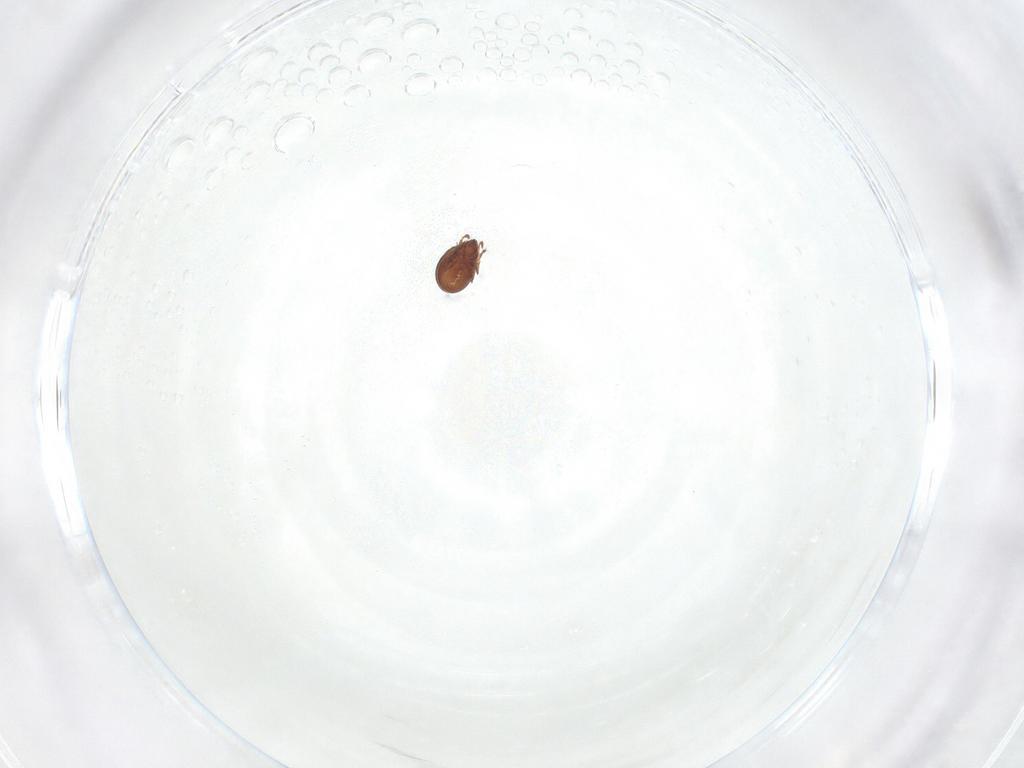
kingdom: Animalia
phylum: Arthropoda
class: Arachnida
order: Sarcoptiformes
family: Ceratozetidae
